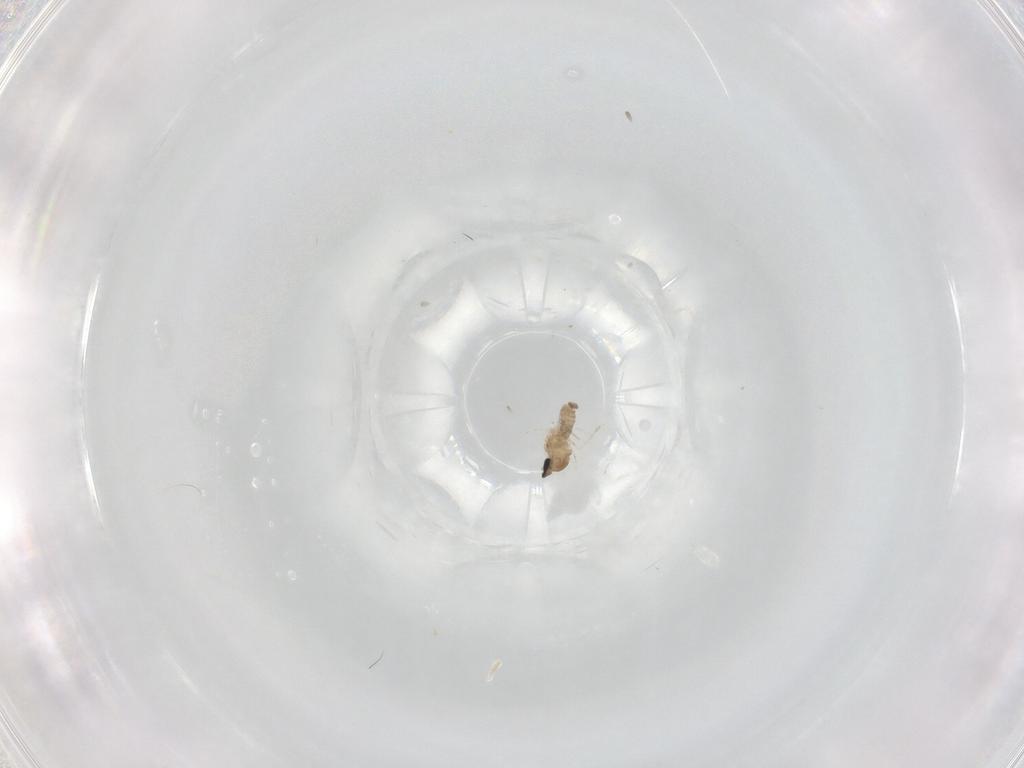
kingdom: Animalia
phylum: Arthropoda
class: Insecta
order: Diptera
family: Cecidomyiidae
